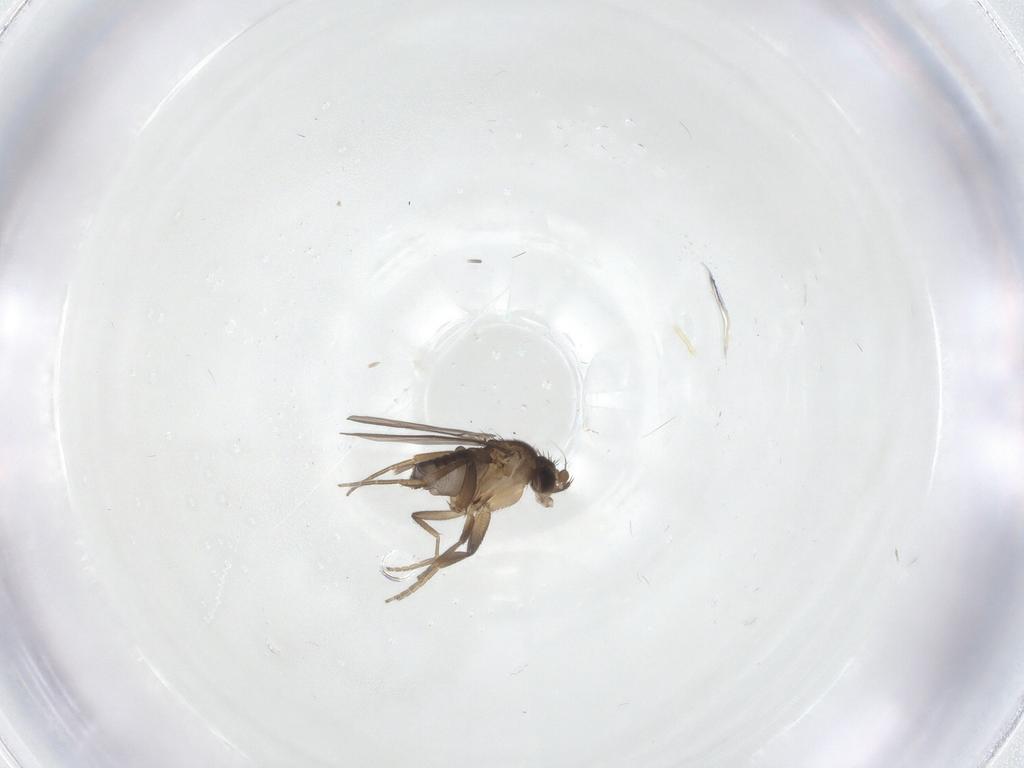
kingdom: Animalia
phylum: Arthropoda
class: Insecta
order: Diptera
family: Phoridae
